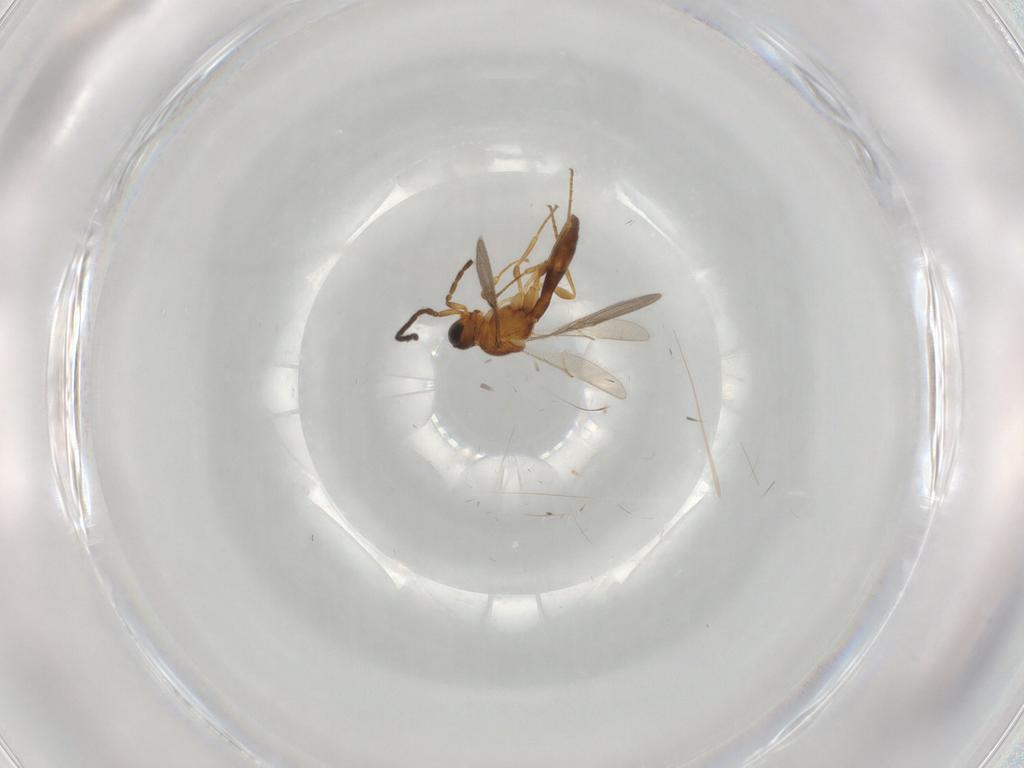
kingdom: Animalia
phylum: Arthropoda
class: Insecta
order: Hymenoptera
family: Scelionidae
